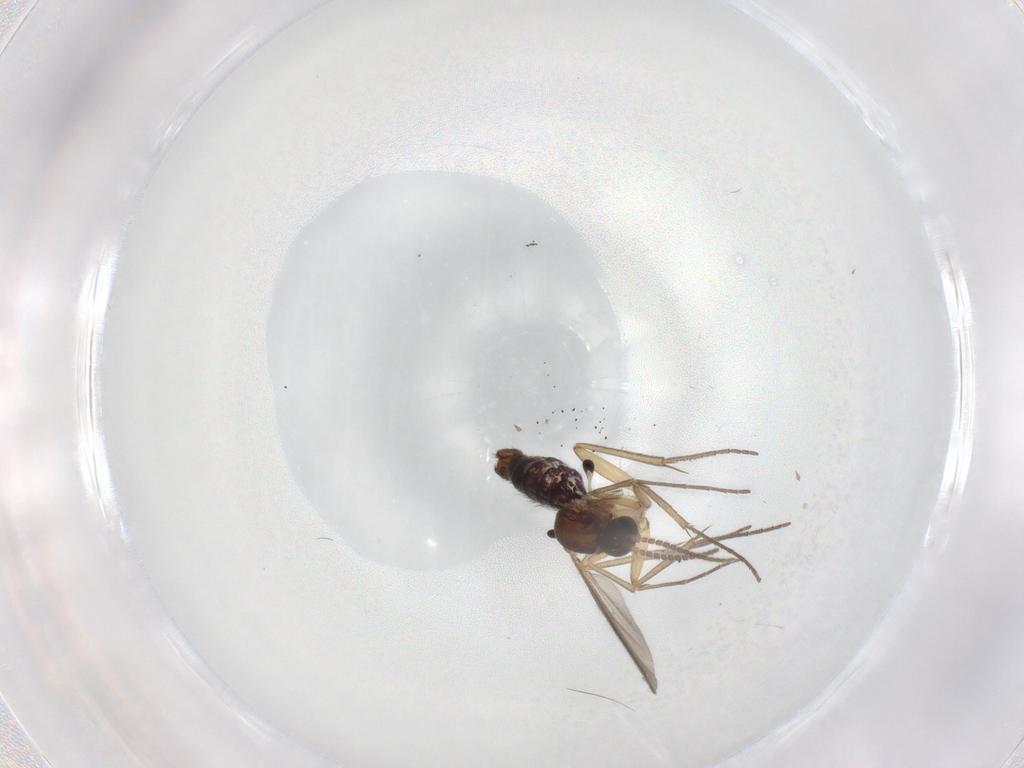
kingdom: Animalia
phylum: Arthropoda
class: Insecta
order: Diptera
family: Mycetophilidae
